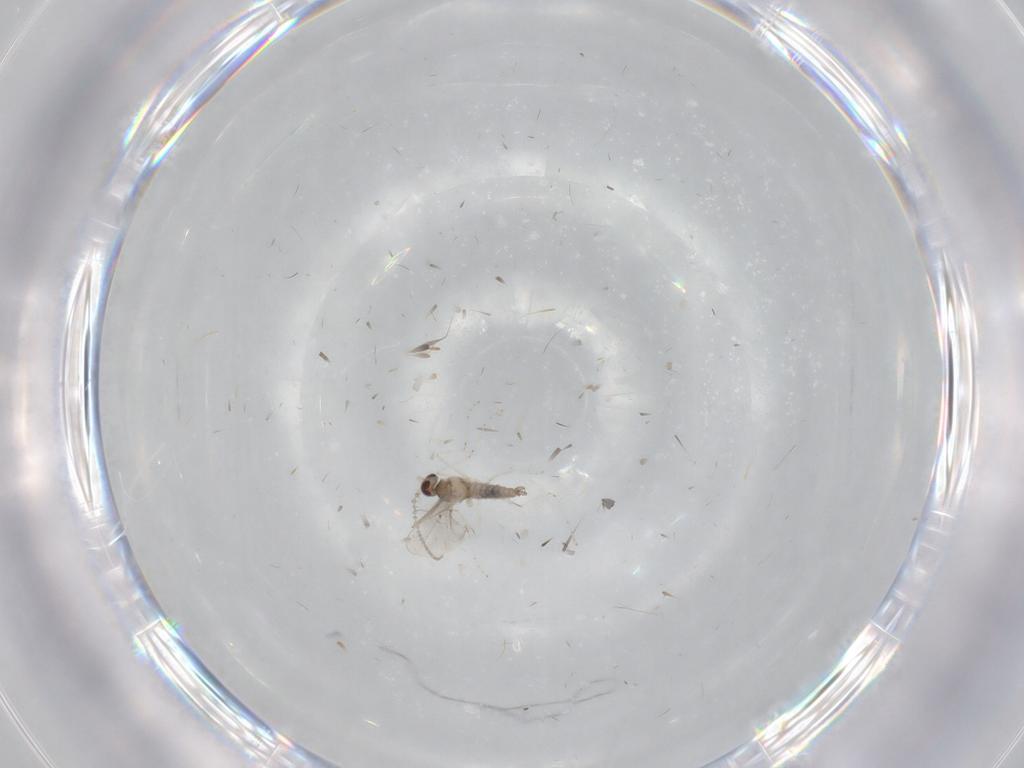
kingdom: Animalia
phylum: Arthropoda
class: Insecta
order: Diptera
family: Cecidomyiidae
